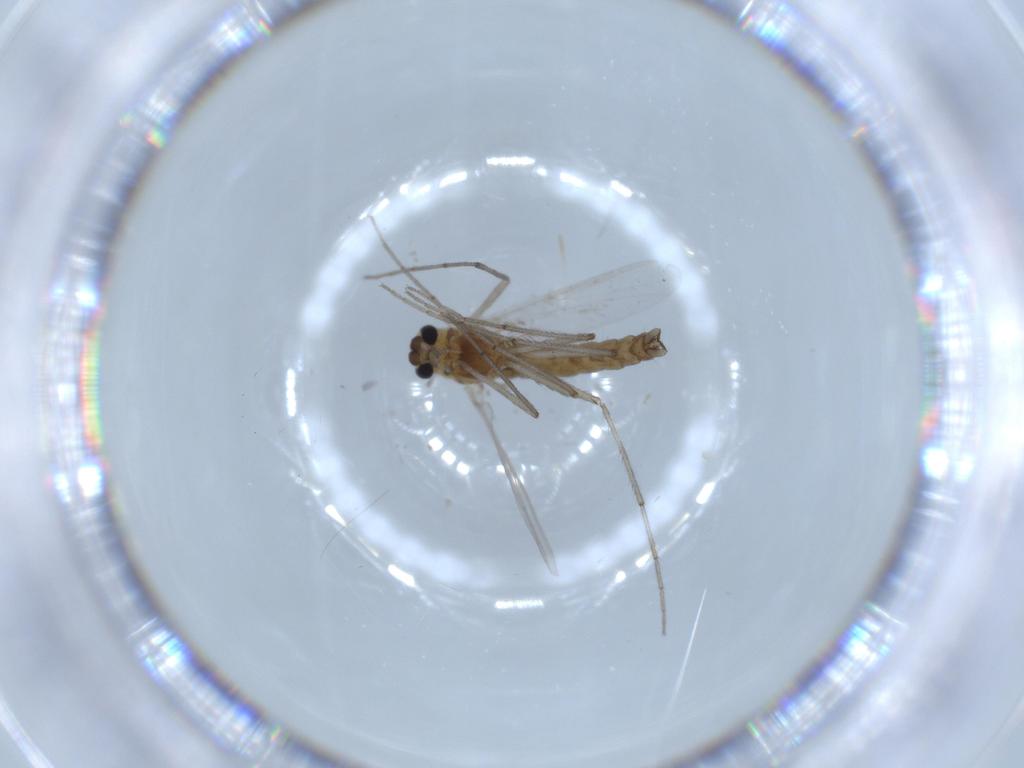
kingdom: Animalia
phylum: Arthropoda
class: Insecta
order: Diptera
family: Chironomidae
